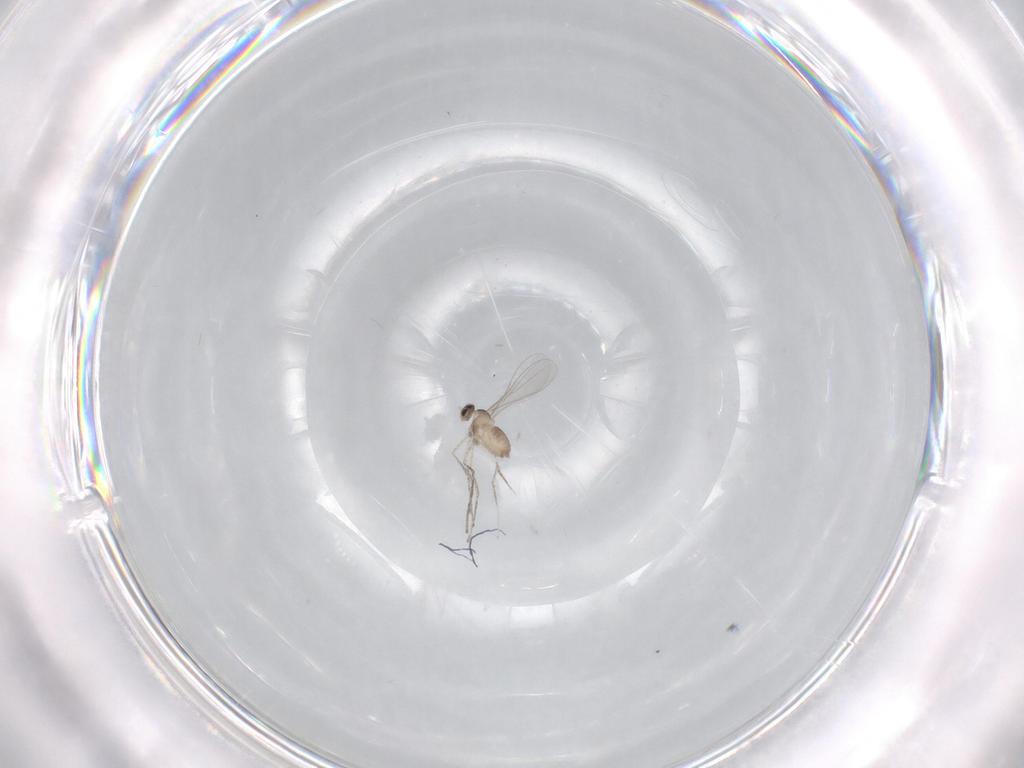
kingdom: Animalia
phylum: Arthropoda
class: Insecta
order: Diptera
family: Cecidomyiidae
